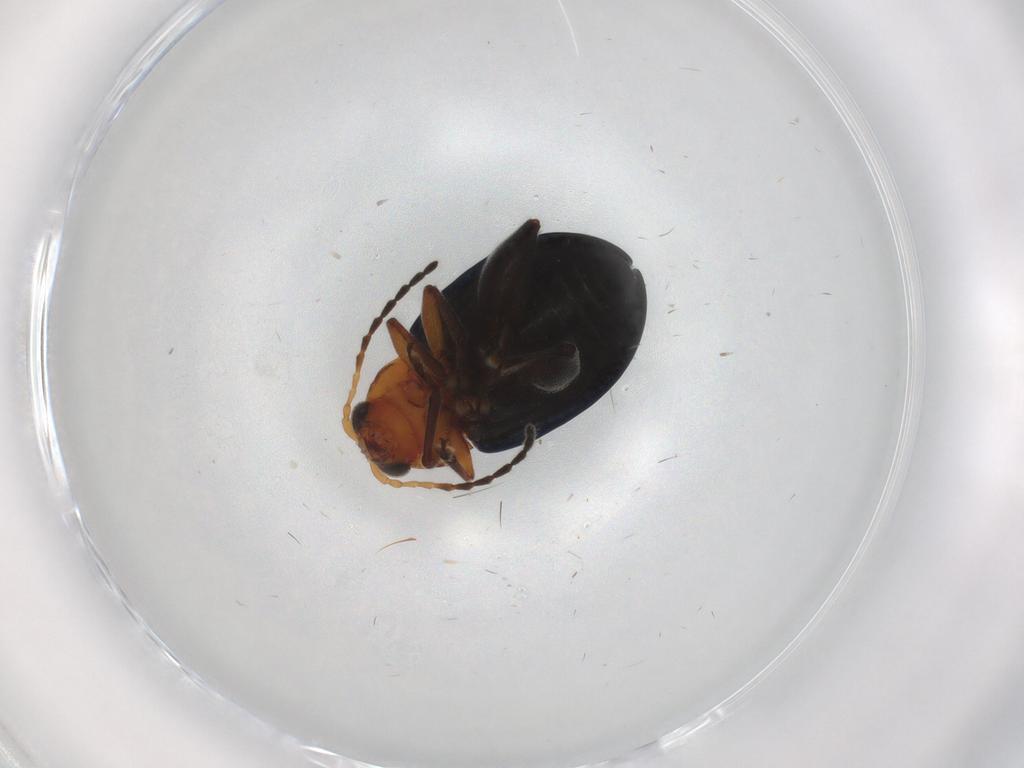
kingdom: Animalia
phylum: Arthropoda
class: Insecta
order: Coleoptera
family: Chrysomelidae
